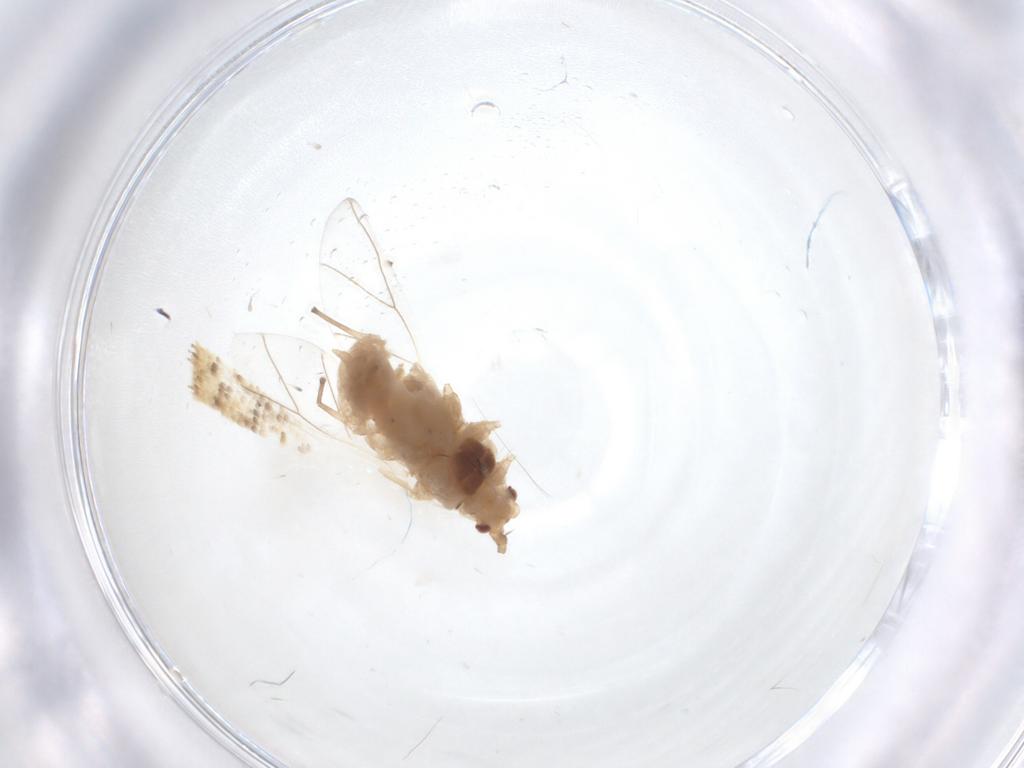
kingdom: Animalia
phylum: Arthropoda
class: Insecta
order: Hemiptera
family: Aphididae
